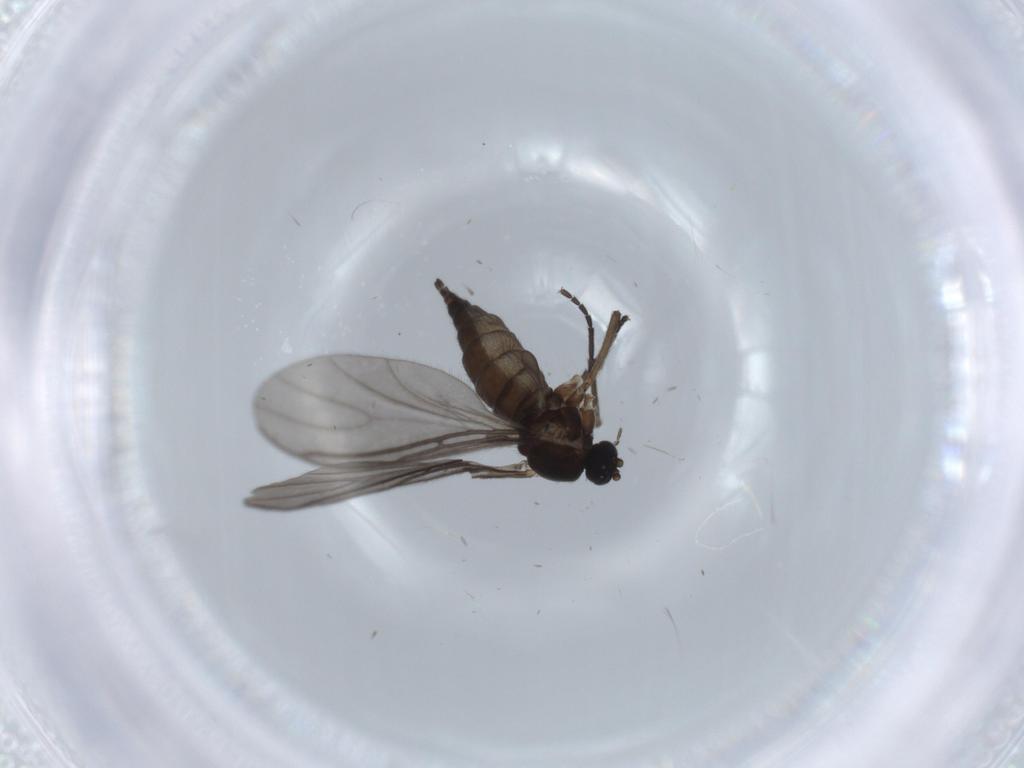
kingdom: Animalia
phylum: Arthropoda
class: Insecta
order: Diptera
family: Sciaridae
